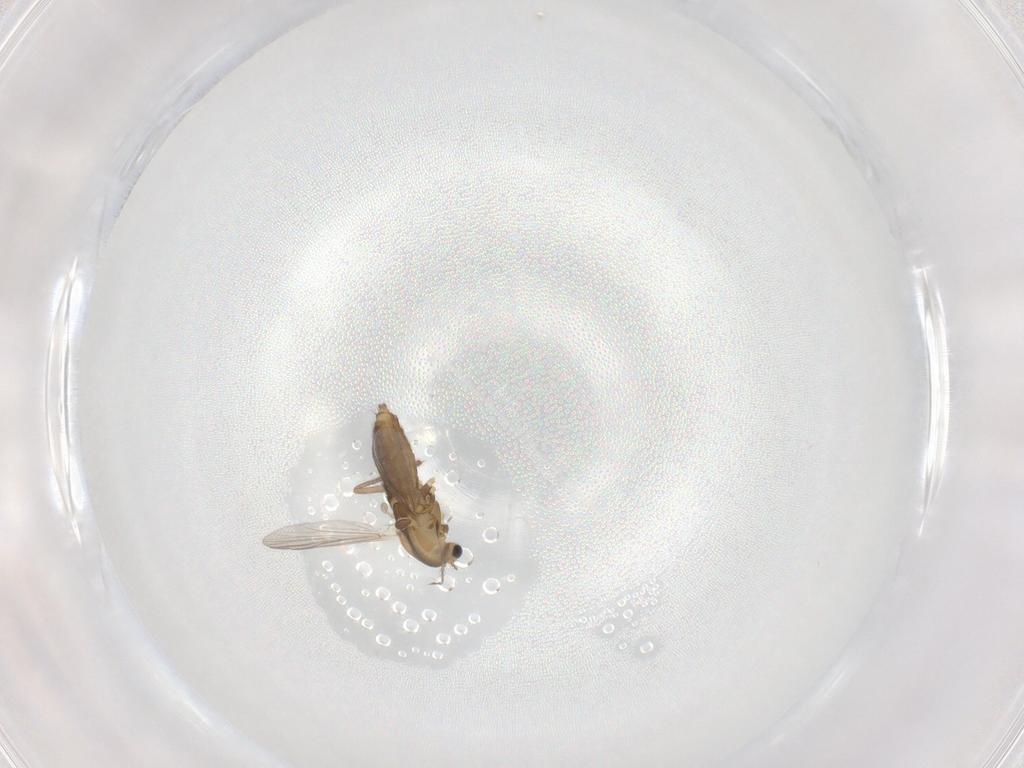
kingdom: Animalia
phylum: Arthropoda
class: Insecta
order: Diptera
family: Chironomidae
